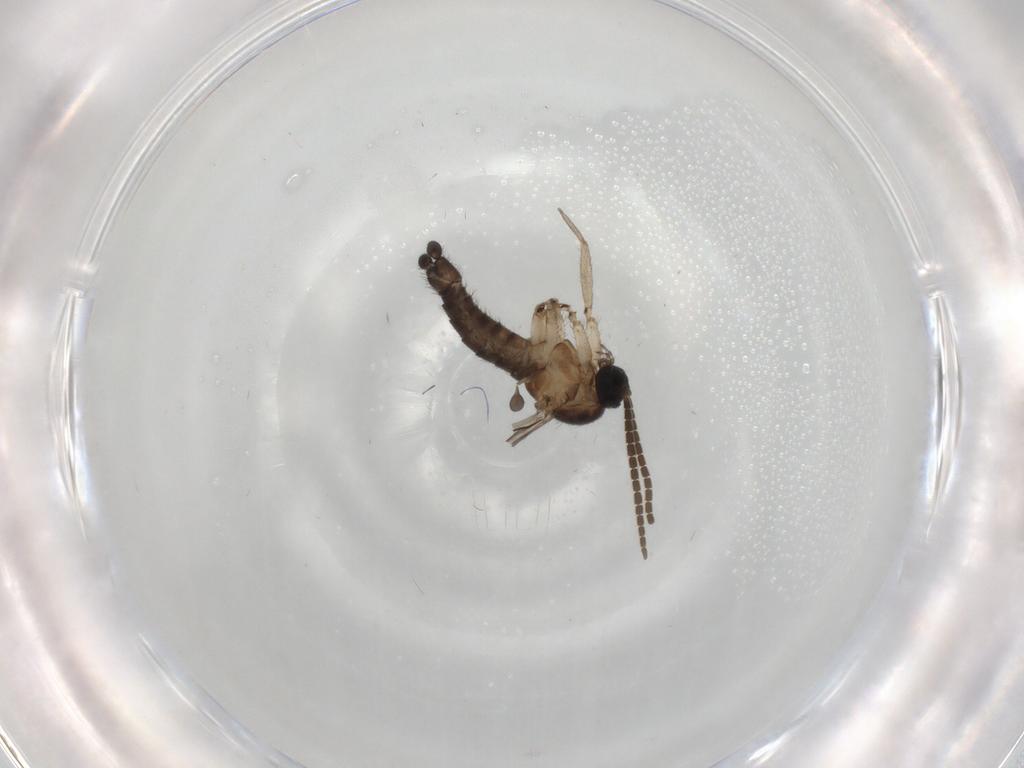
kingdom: Animalia
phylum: Arthropoda
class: Insecta
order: Diptera
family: Cecidomyiidae
